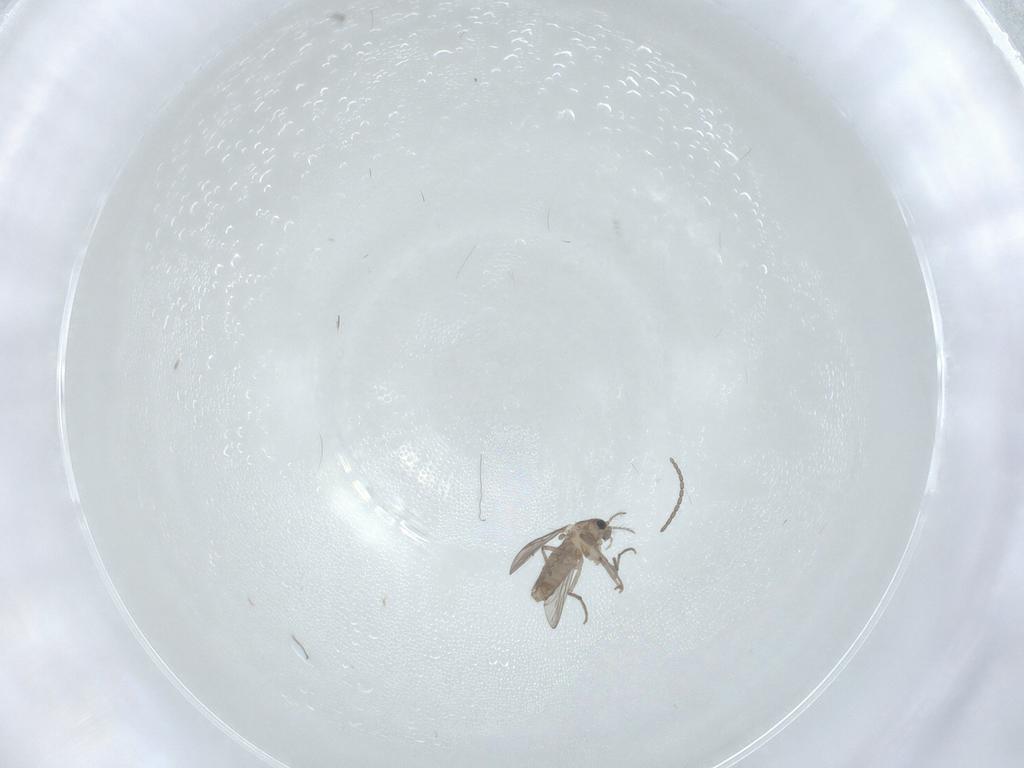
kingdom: Animalia
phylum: Arthropoda
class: Insecta
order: Diptera
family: Chironomidae
